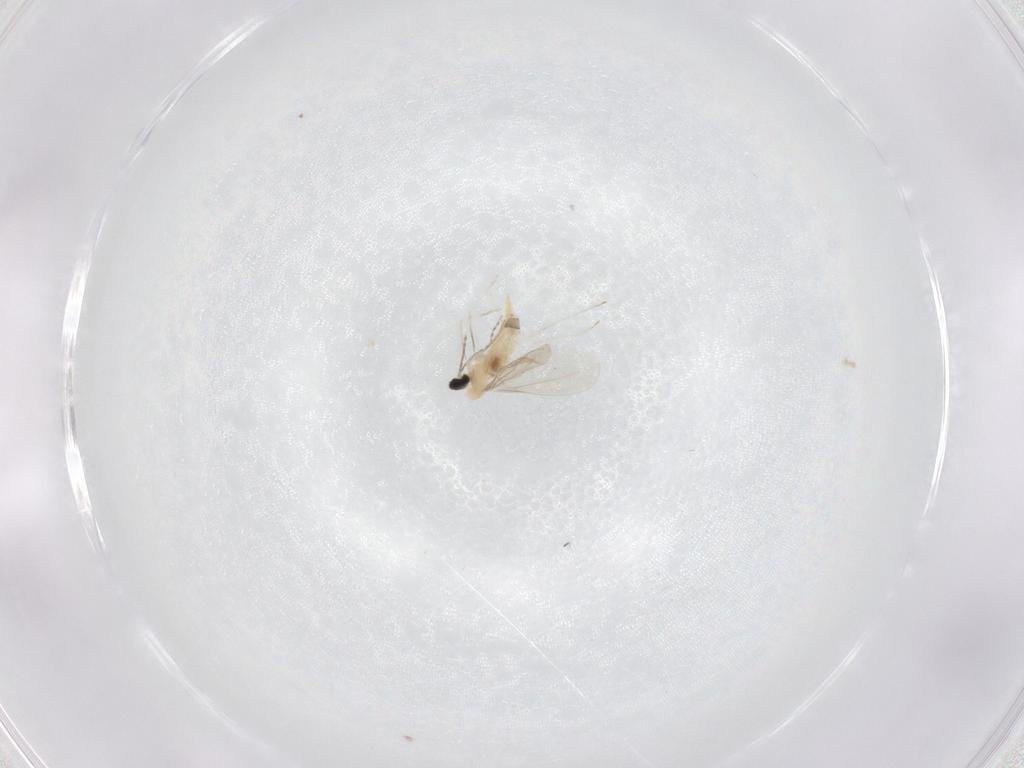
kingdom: Animalia
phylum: Arthropoda
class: Insecta
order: Diptera
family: Cecidomyiidae
